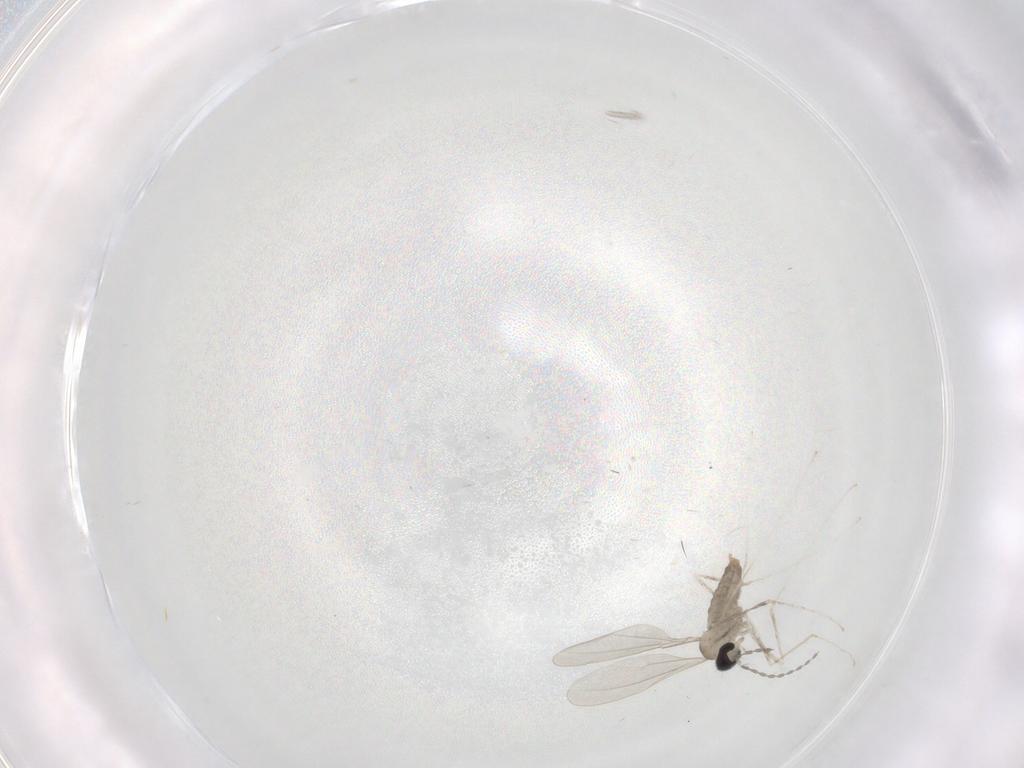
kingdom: Animalia
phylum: Arthropoda
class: Insecta
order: Diptera
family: Cecidomyiidae
